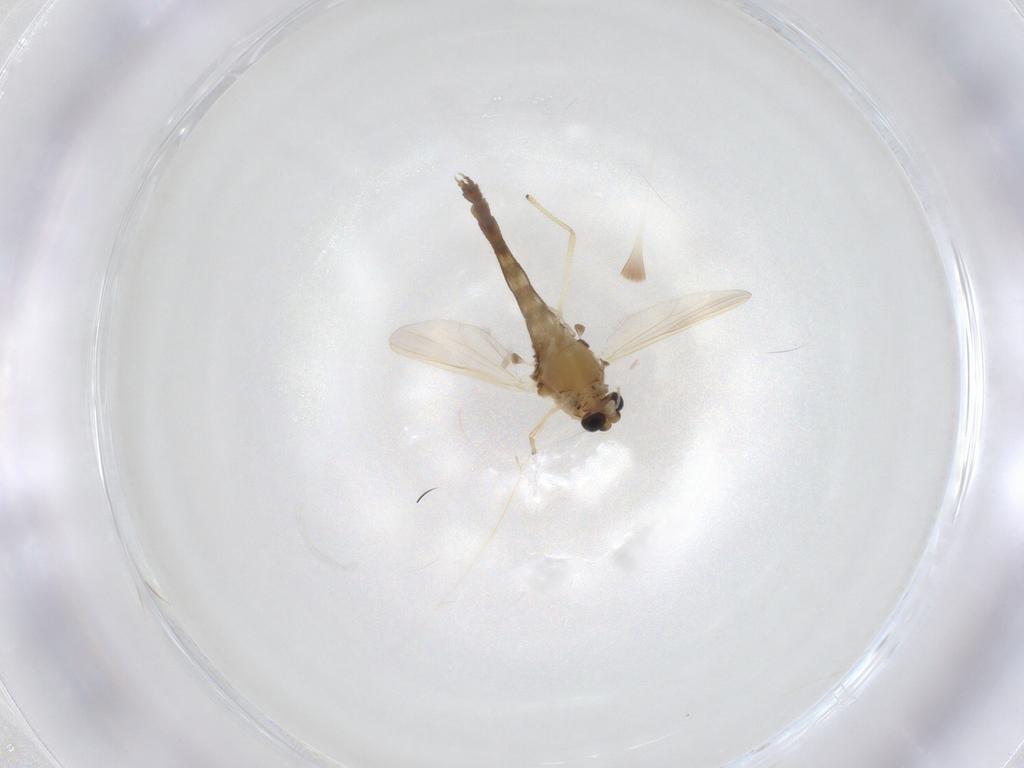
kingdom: Animalia
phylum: Arthropoda
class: Insecta
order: Diptera
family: Chironomidae
